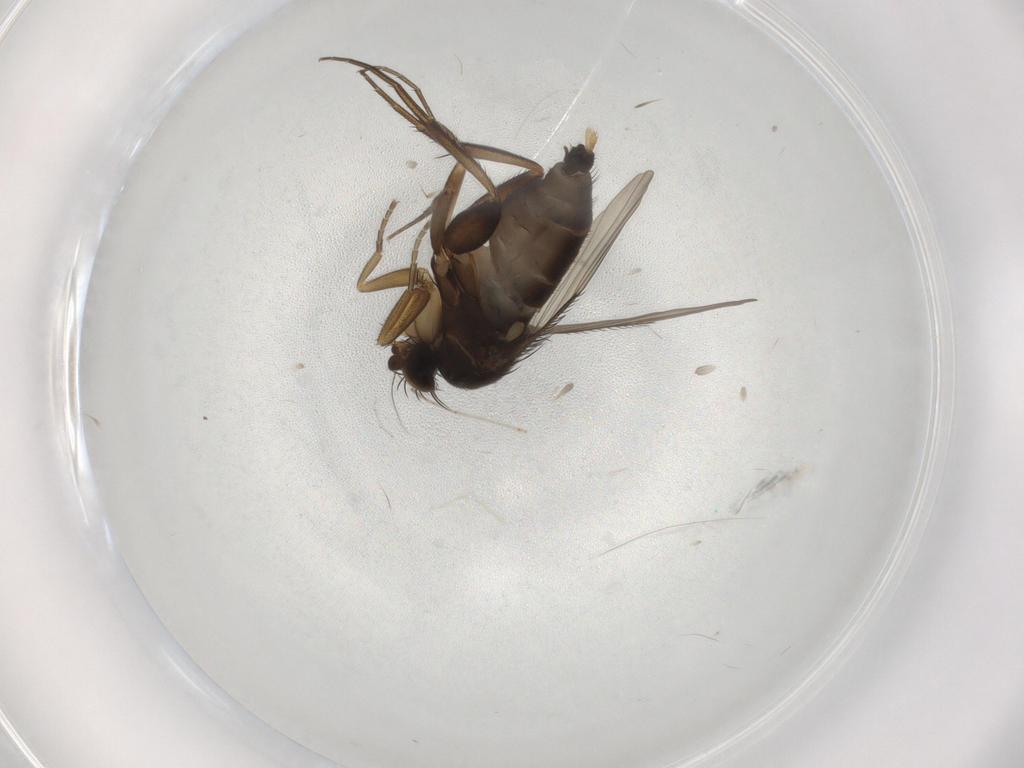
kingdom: Animalia
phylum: Arthropoda
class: Insecta
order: Diptera
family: Phoridae
